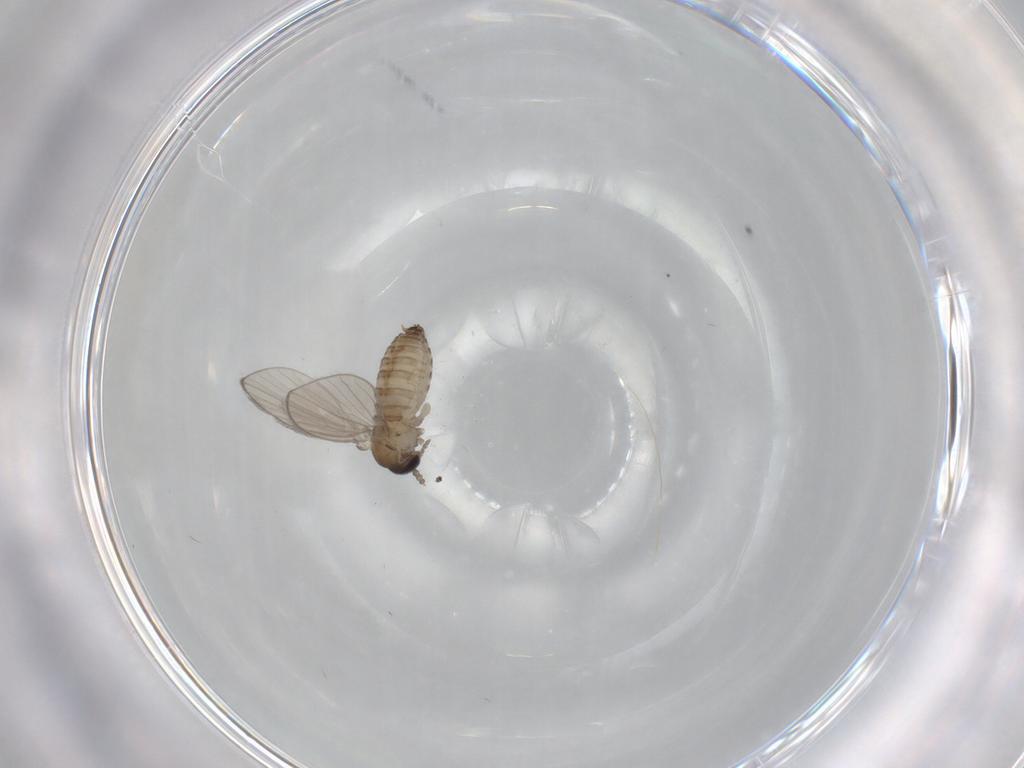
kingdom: Animalia
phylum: Arthropoda
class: Insecta
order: Diptera
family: Psychodidae
